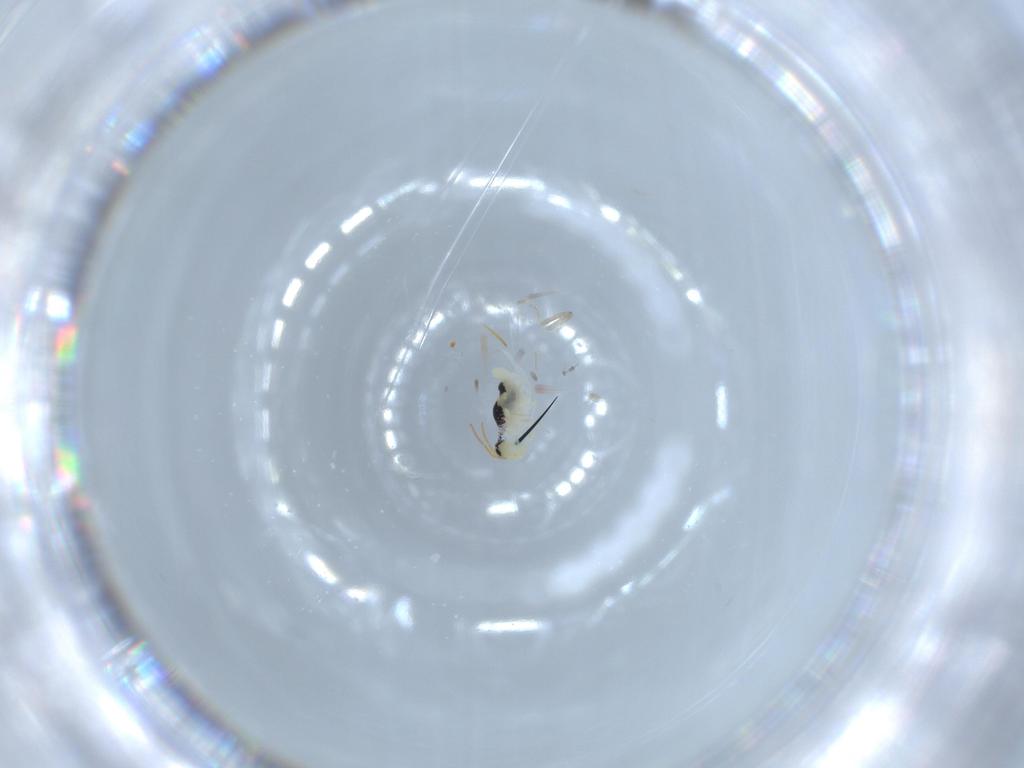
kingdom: Animalia
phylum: Arthropoda
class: Collembola
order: Symphypleona
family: Bourletiellidae
